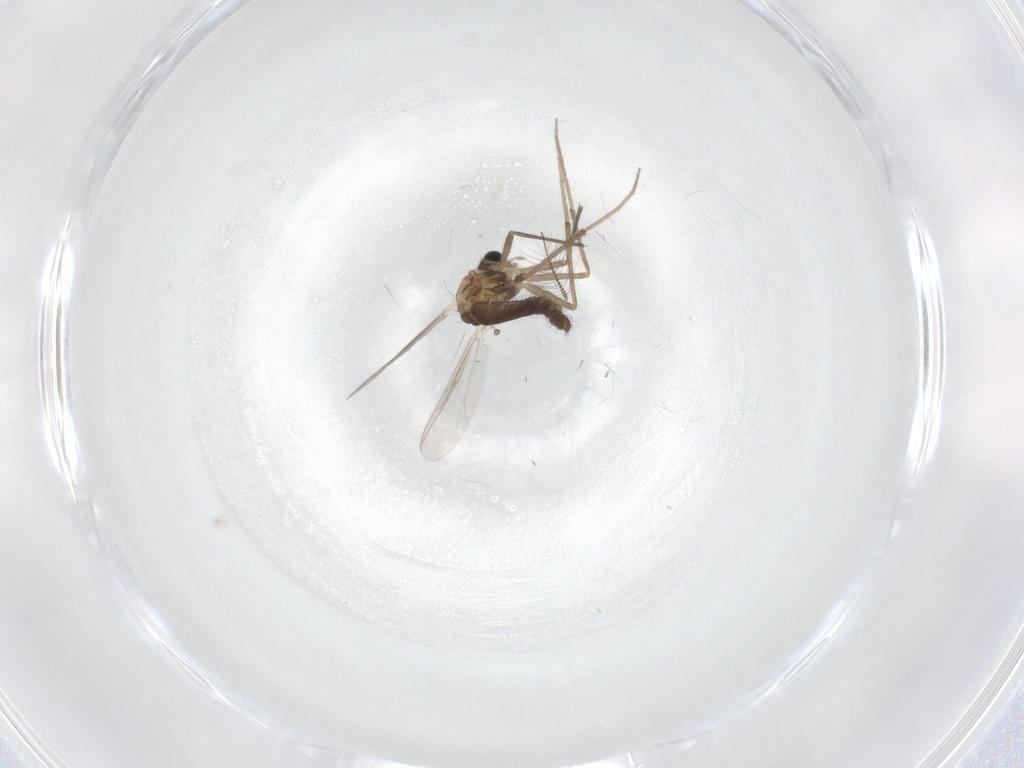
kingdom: Animalia
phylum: Arthropoda
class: Insecta
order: Diptera
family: Chironomidae
